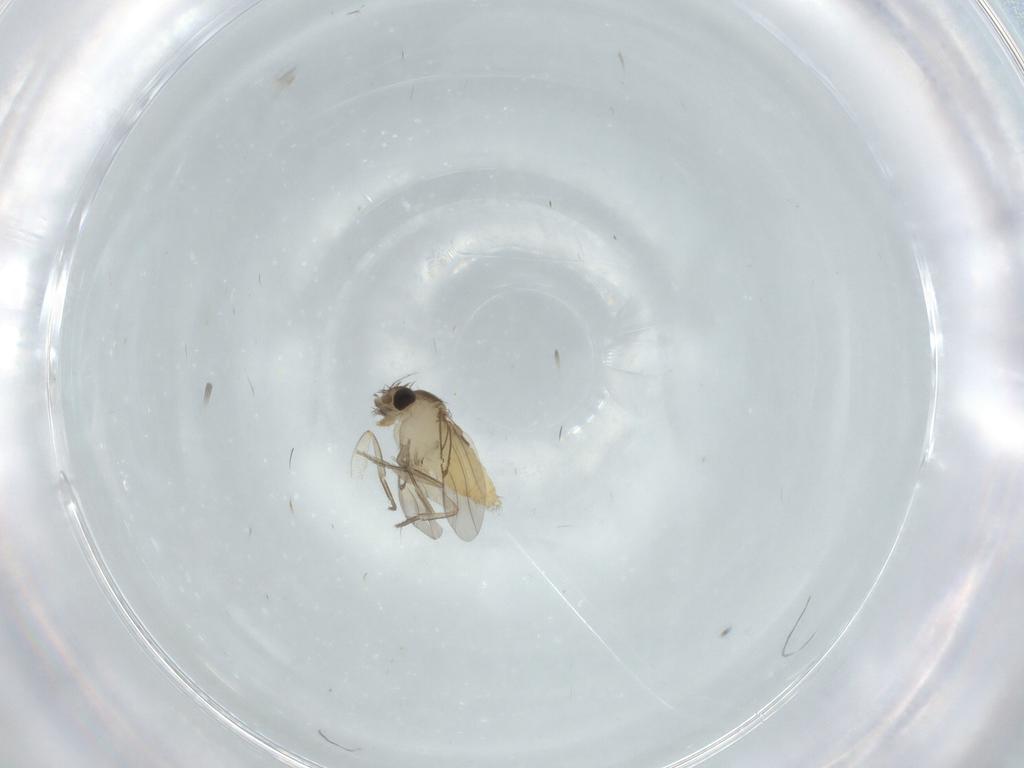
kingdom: Animalia
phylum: Arthropoda
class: Insecta
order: Diptera
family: Ceratopogonidae
